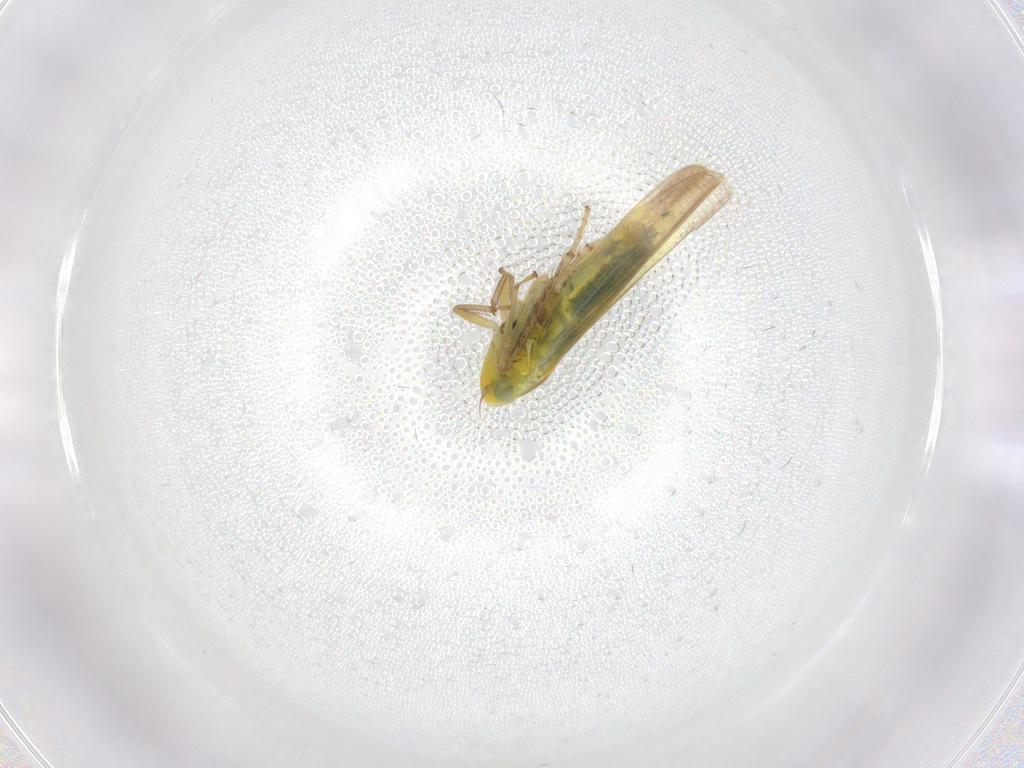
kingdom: Animalia
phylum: Arthropoda
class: Insecta
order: Hemiptera
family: Cicadellidae
